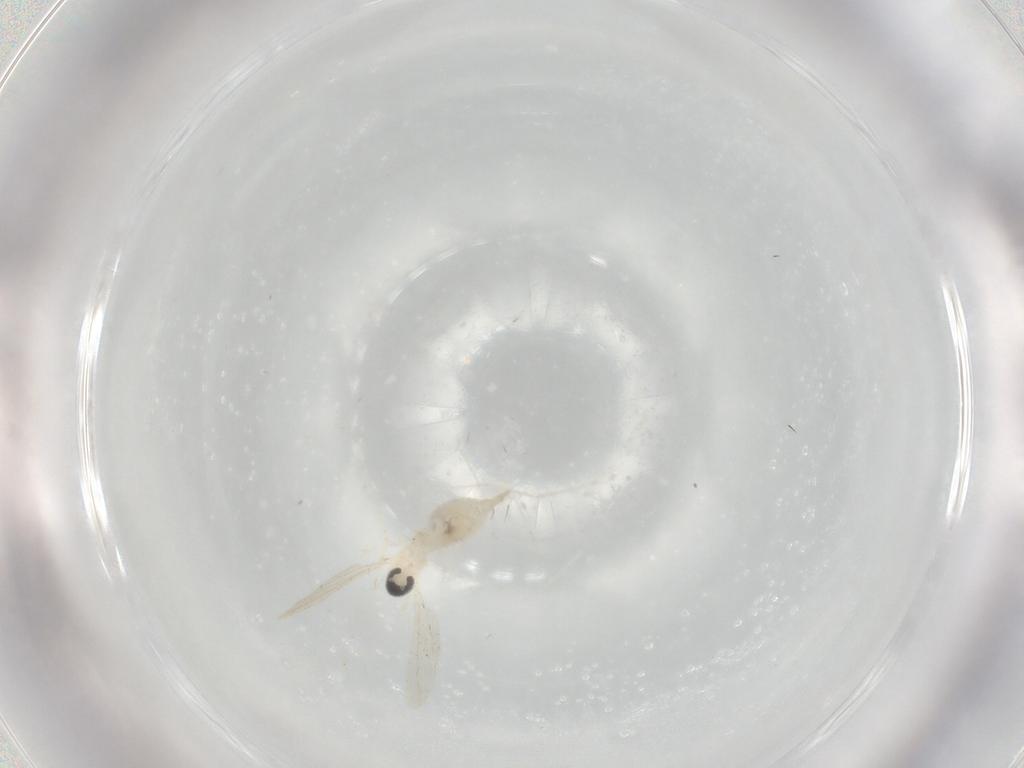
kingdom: Animalia
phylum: Arthropoda
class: Insecta
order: Diptera
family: Cecidomyiidae
